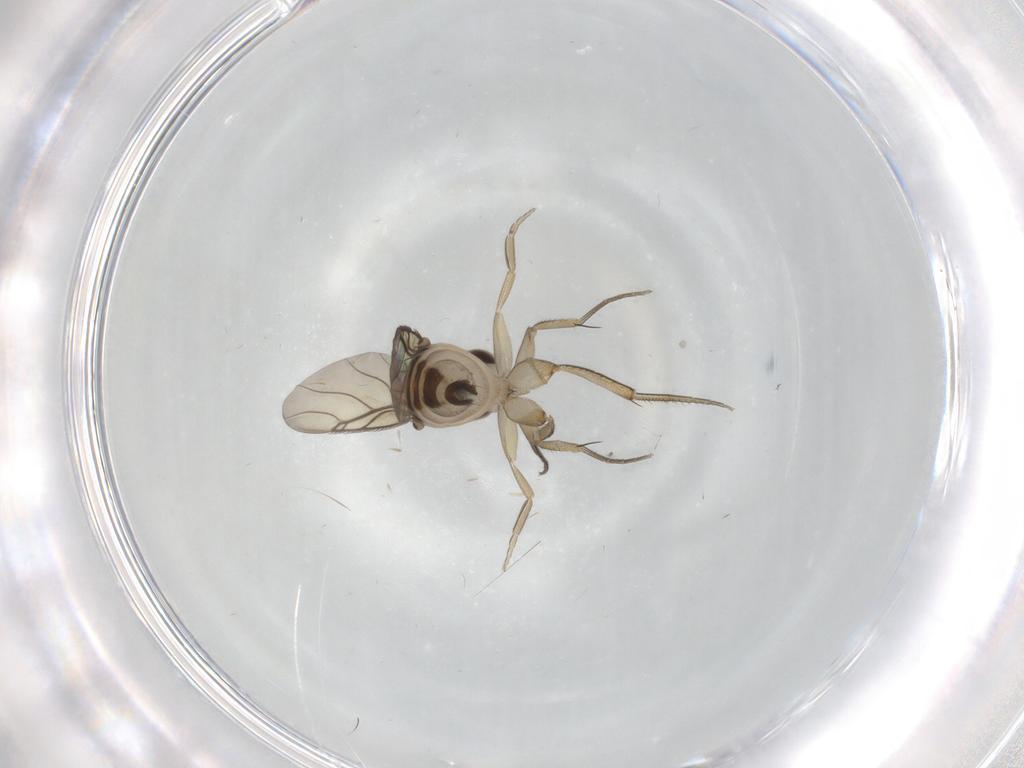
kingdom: Animalia
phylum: Arthropoda
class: Insecta
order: Diptera
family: Phoridae
